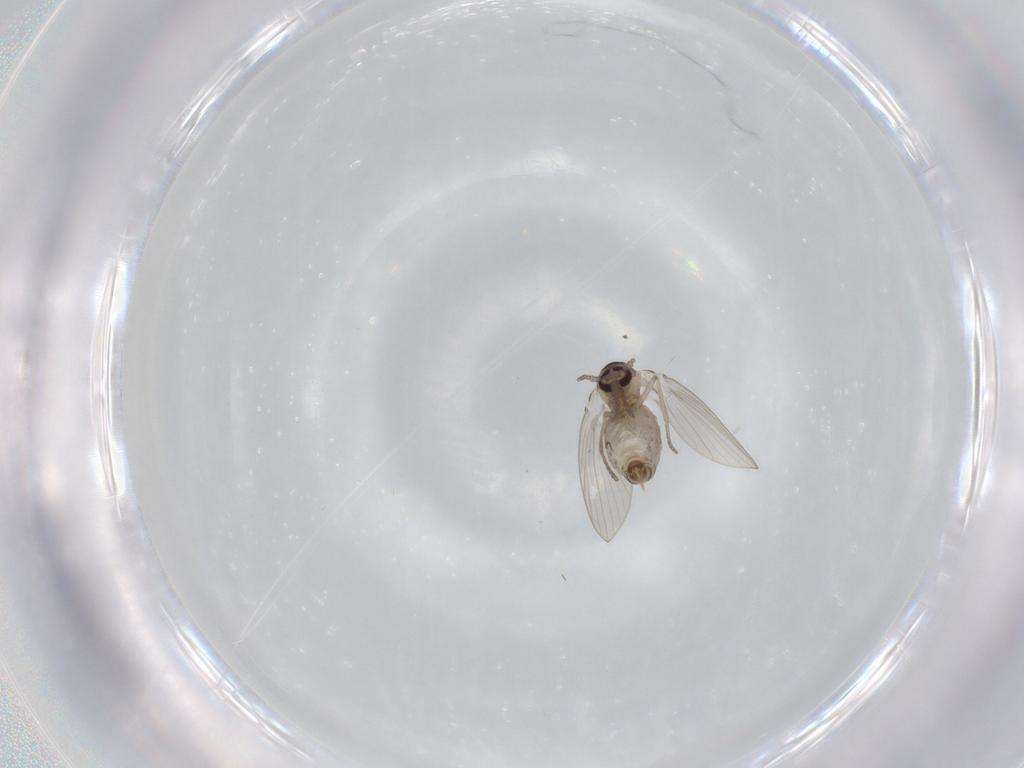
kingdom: Animalia
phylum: Arthropoda
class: Insecta
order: Diptera
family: Psychodidae
